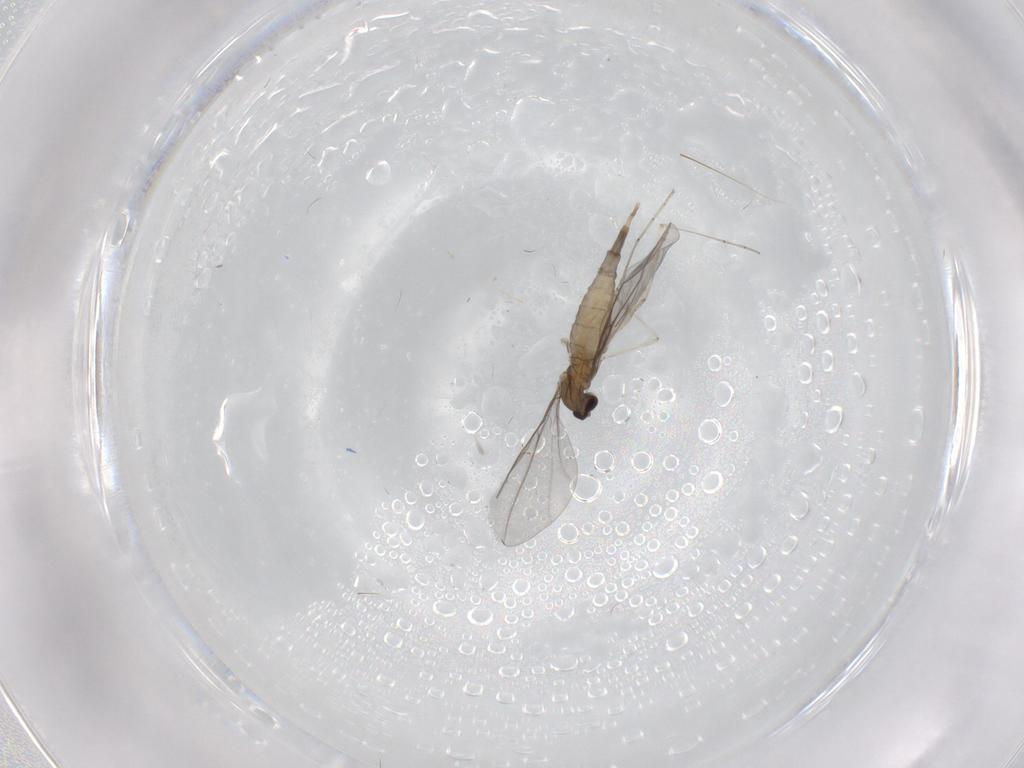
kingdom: Animalia
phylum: Arthropoda
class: Insecta
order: Diptera
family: Cecidomyiidae
